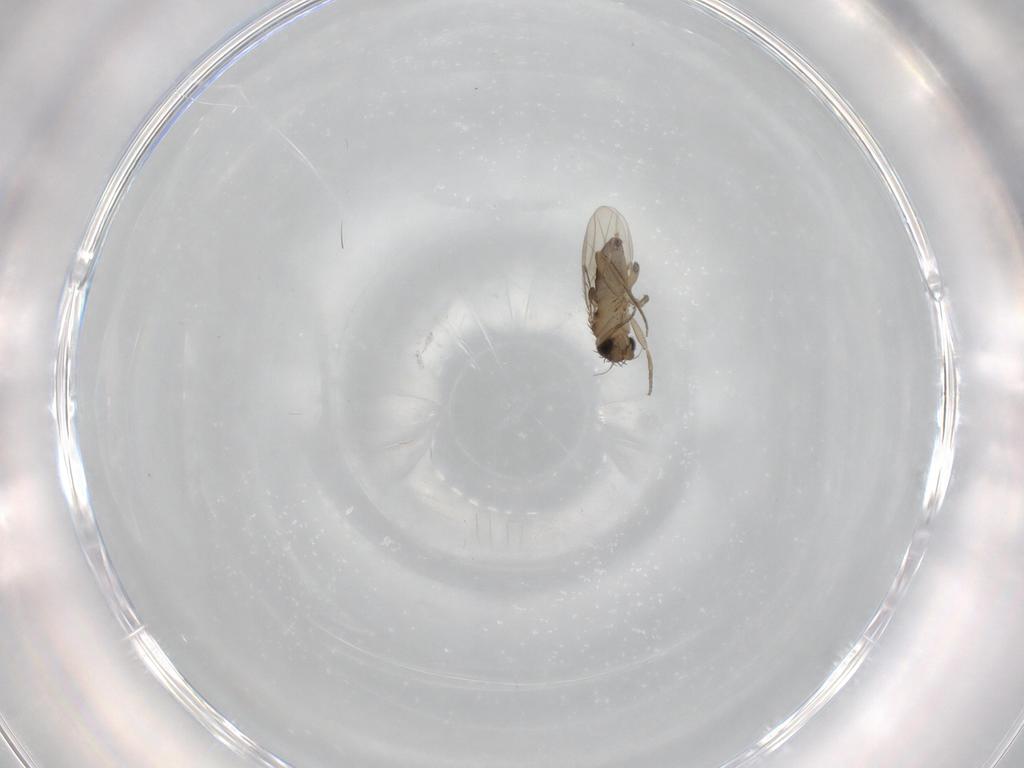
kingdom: Animalia
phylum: Arthropoda
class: Insecta
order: Diptera
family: Phoridae
